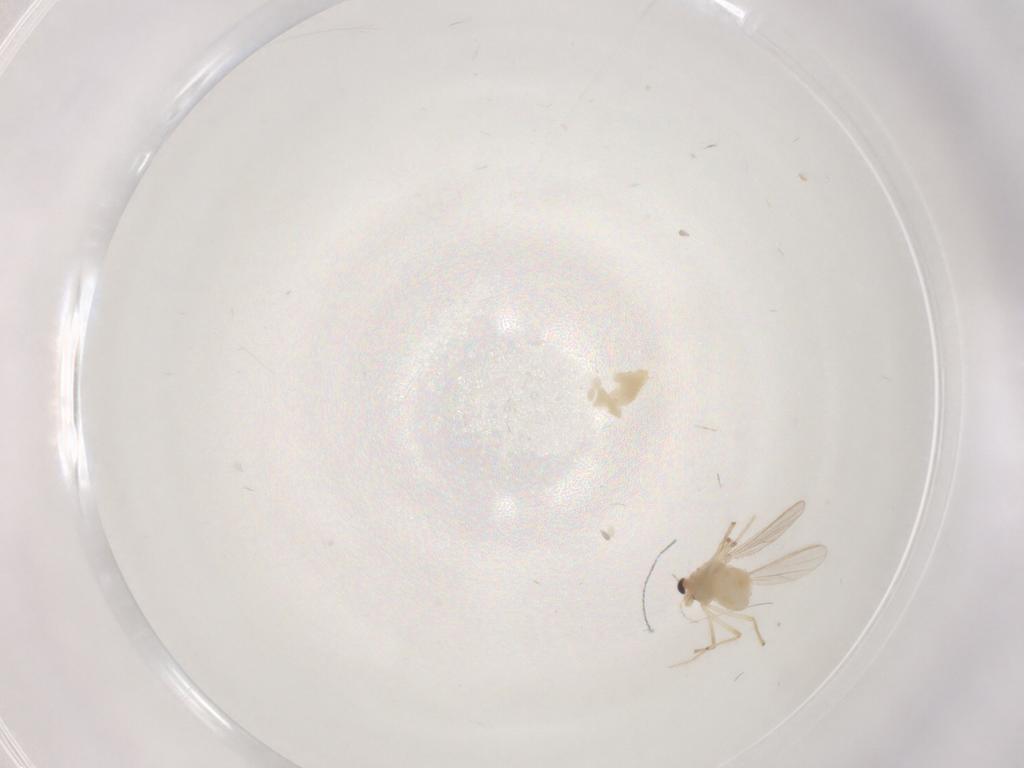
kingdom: Animalia
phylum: Arthropoda
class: Insecta
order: Diptera
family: Chironomidae
